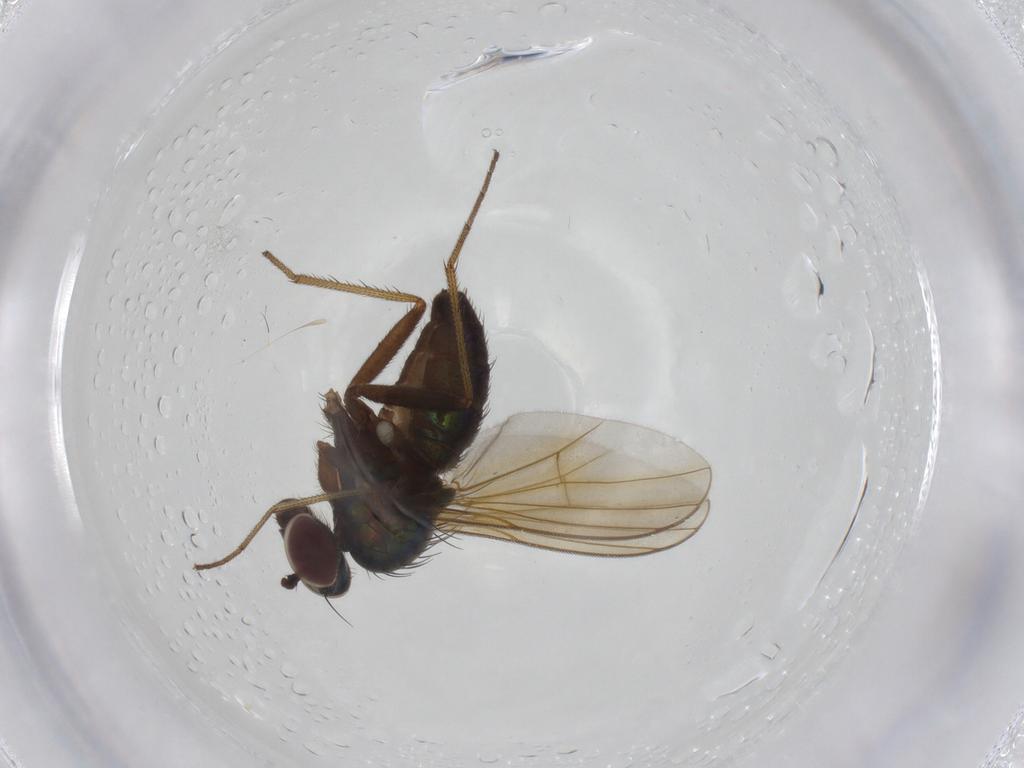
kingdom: Animalia
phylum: Arthropoda
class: Insecta
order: Diptera
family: Dolichopodidae
